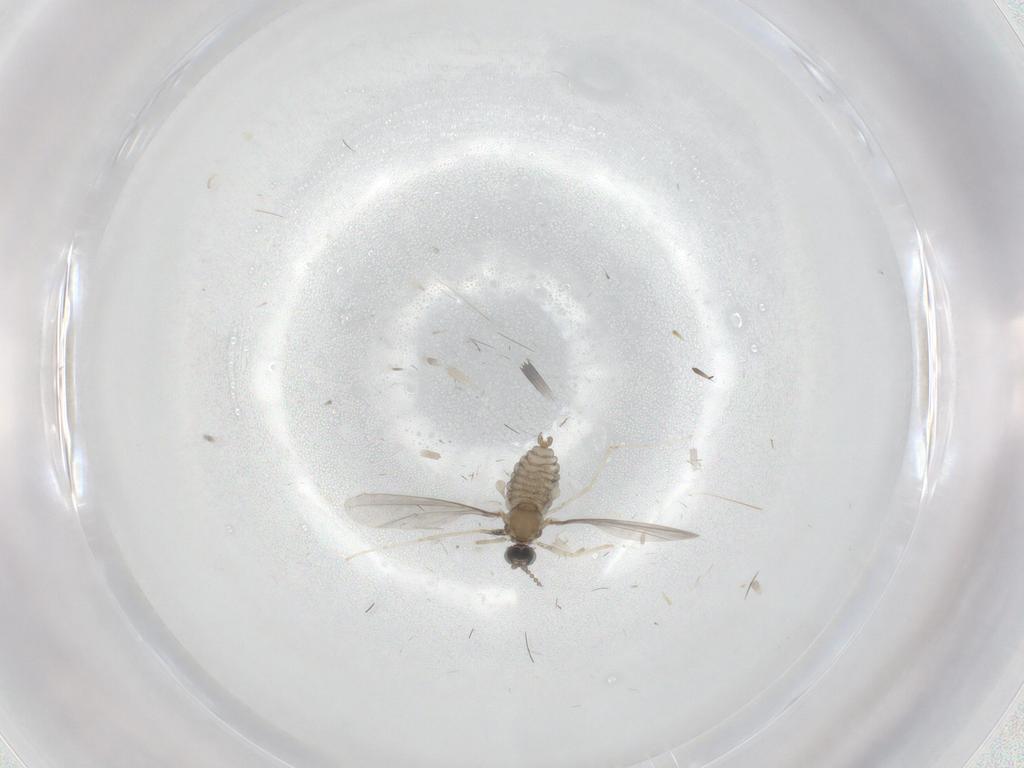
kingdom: Animalia
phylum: Arthropoda
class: Insecta
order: Diptera
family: Cecidomyiidae
